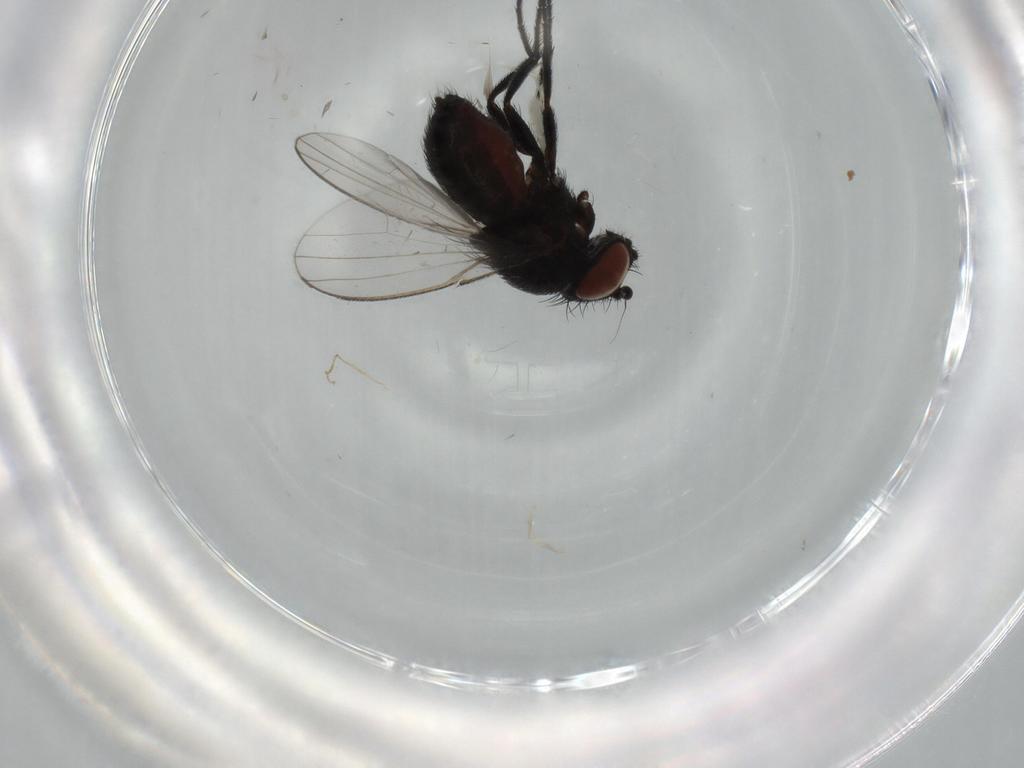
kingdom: Animalia
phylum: Arthropoda
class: Insecta
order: Diptera
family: Milichiidae
